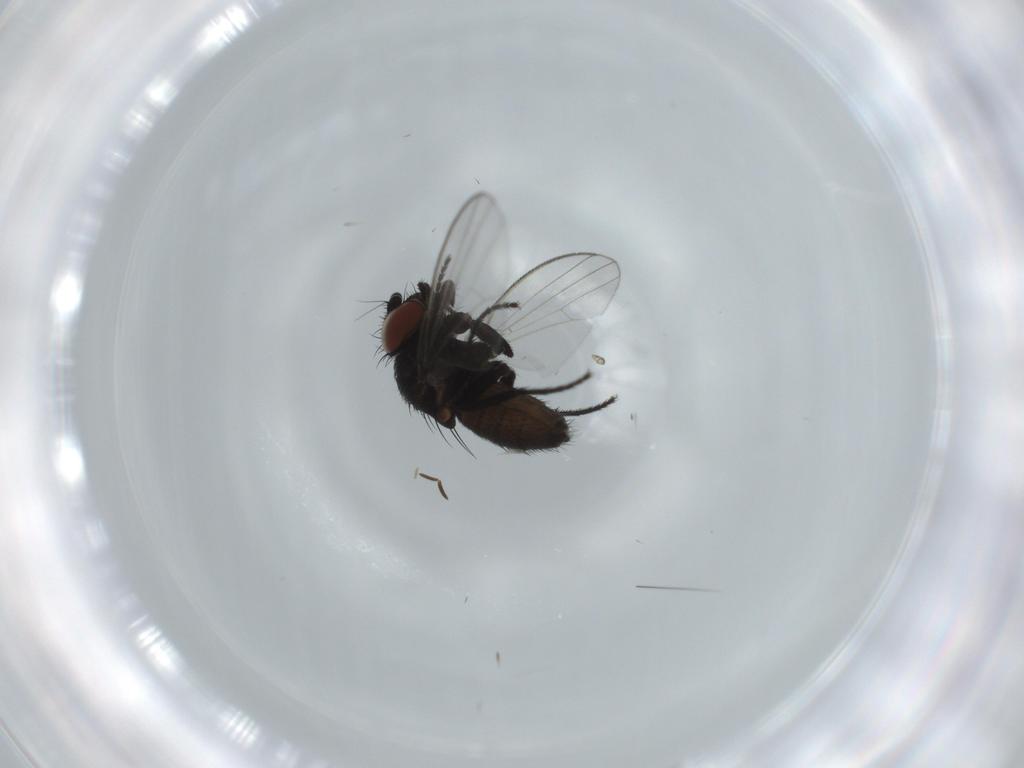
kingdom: Animalia
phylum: Arthropoda
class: Insecta
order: Diptera
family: Milichiidae
